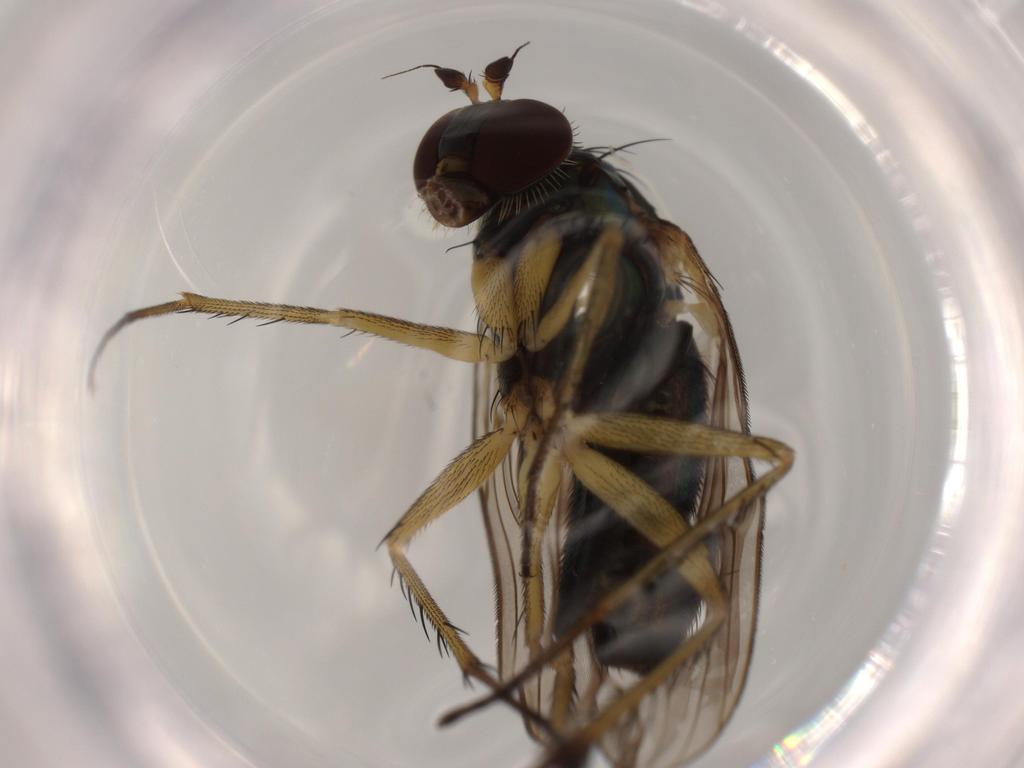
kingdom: Animalia
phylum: Arthropoda
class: Insecta
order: Diptera
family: Dolichopodidae
